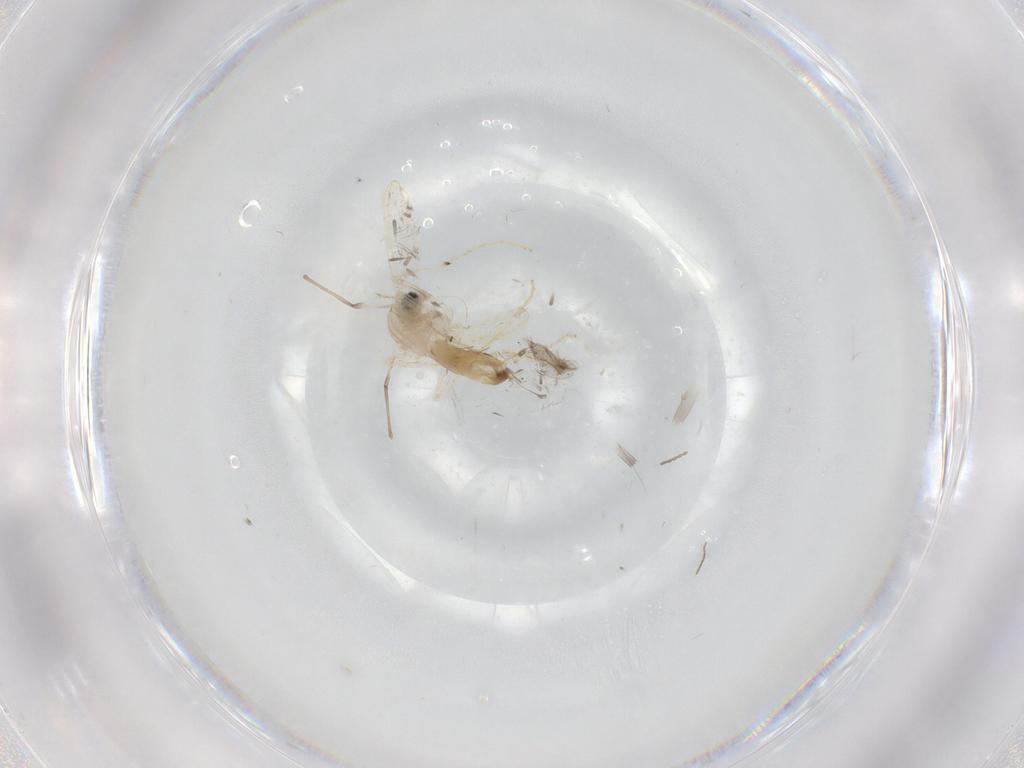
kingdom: Animalia
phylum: Arthropoda
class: Insecta
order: Diptera
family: Chironomidae
